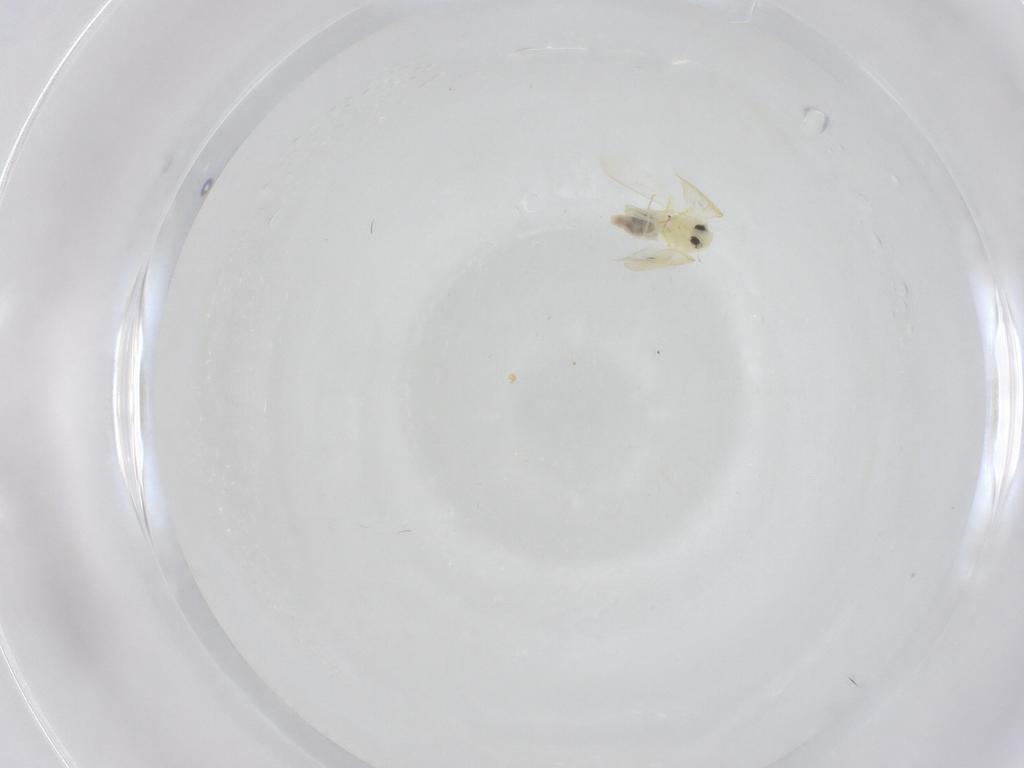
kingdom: Animalia
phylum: Arthropoda
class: Insecta
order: Hemiptera
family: Aleyrodidae
